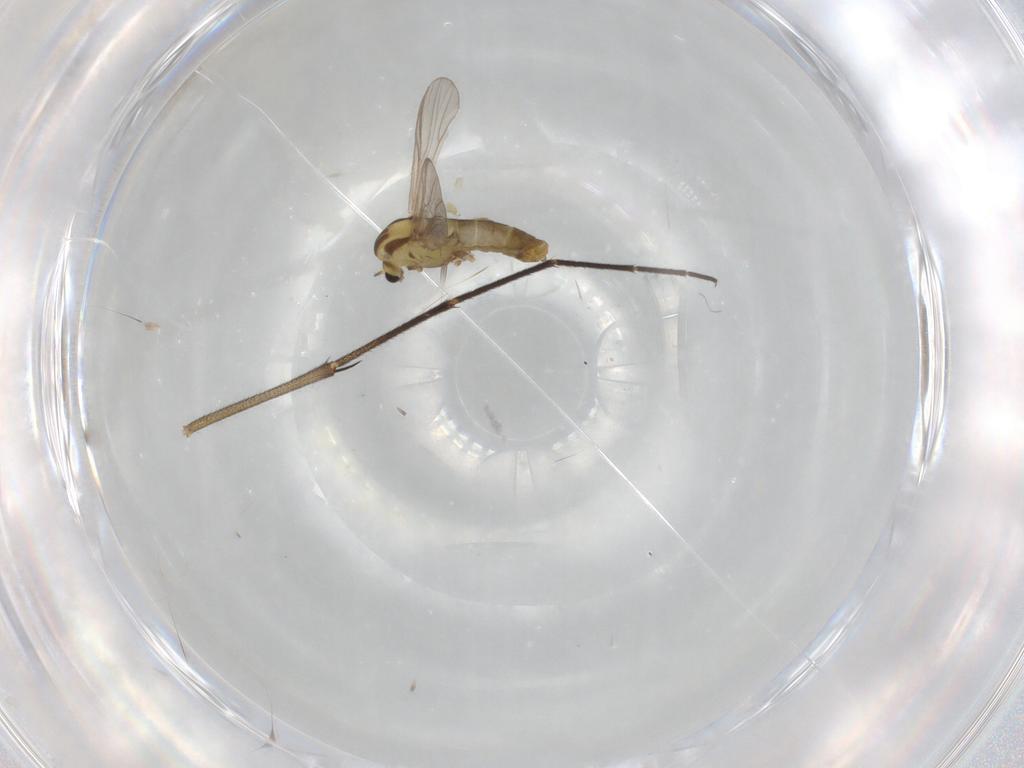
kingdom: Animalia
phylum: Arthropoda
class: Insecta
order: Diptera
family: Chironomidae
